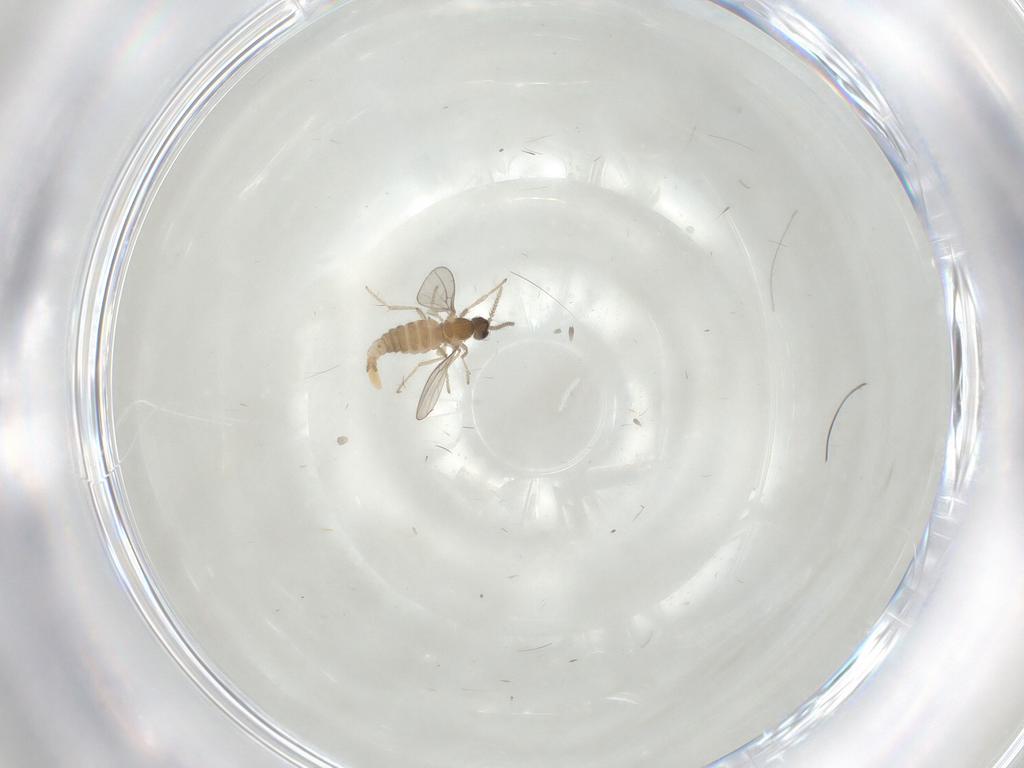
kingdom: Animalia
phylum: Arthropoda
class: Insecta
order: Diptera
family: Cecidomyiidae
